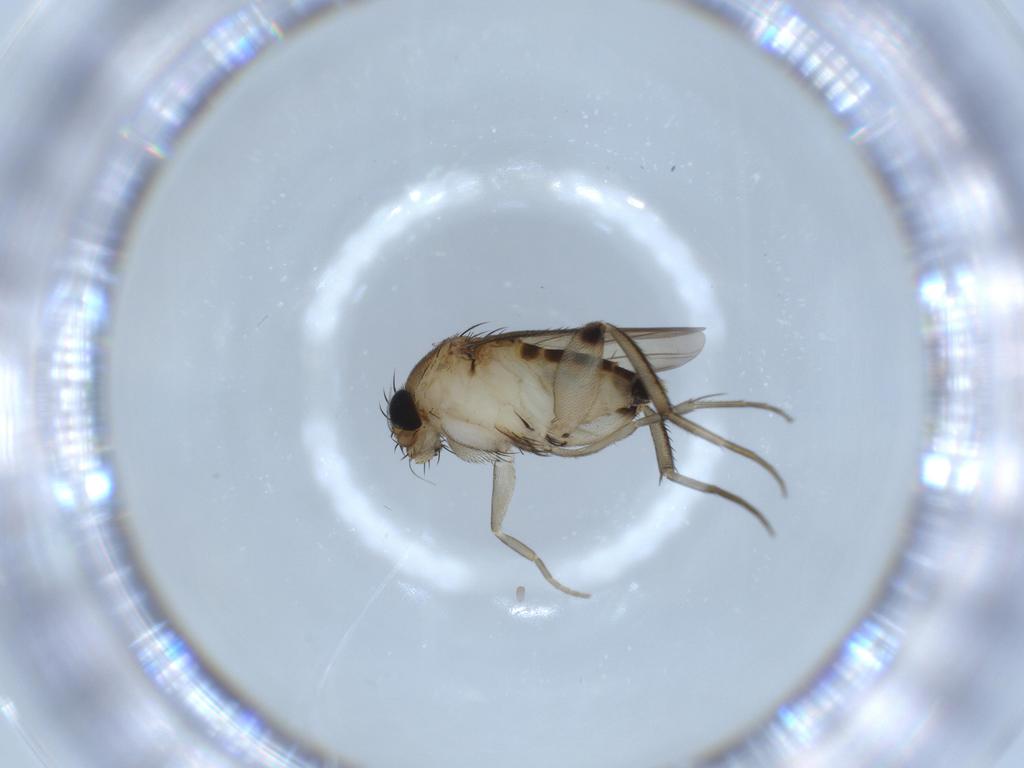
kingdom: Animalia
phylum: Arthropoda
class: Insecta
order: Diptera
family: Phoridae
